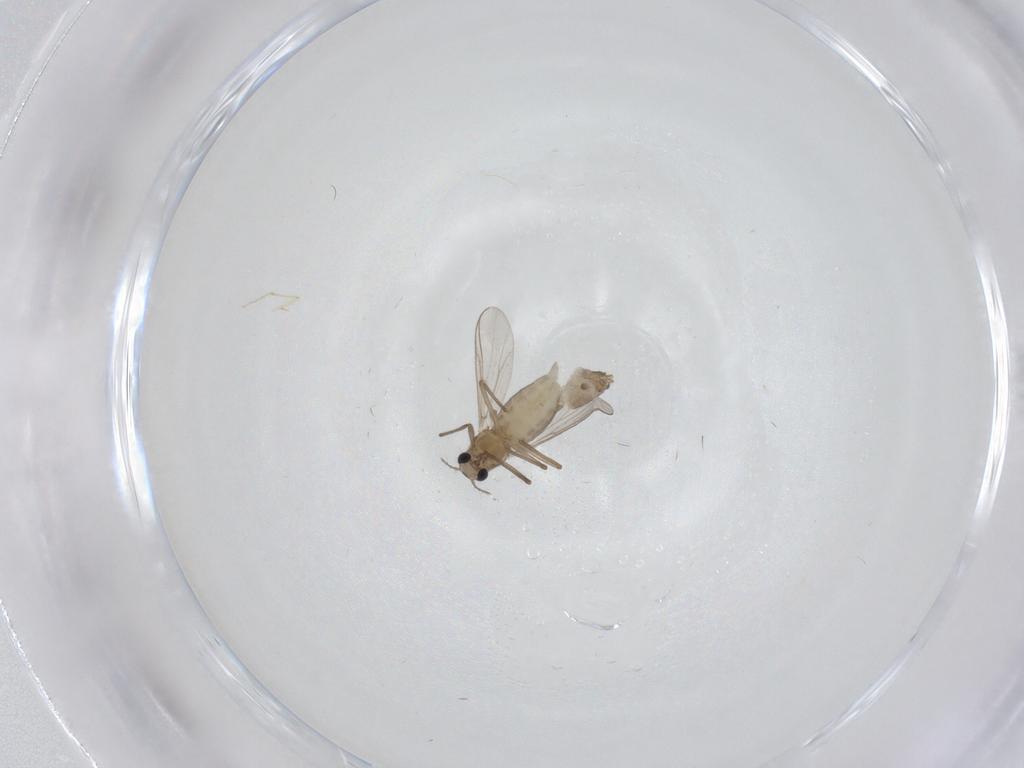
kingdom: Animalia
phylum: Arthropoda
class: Insecta
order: Diptera
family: Chironomidae
